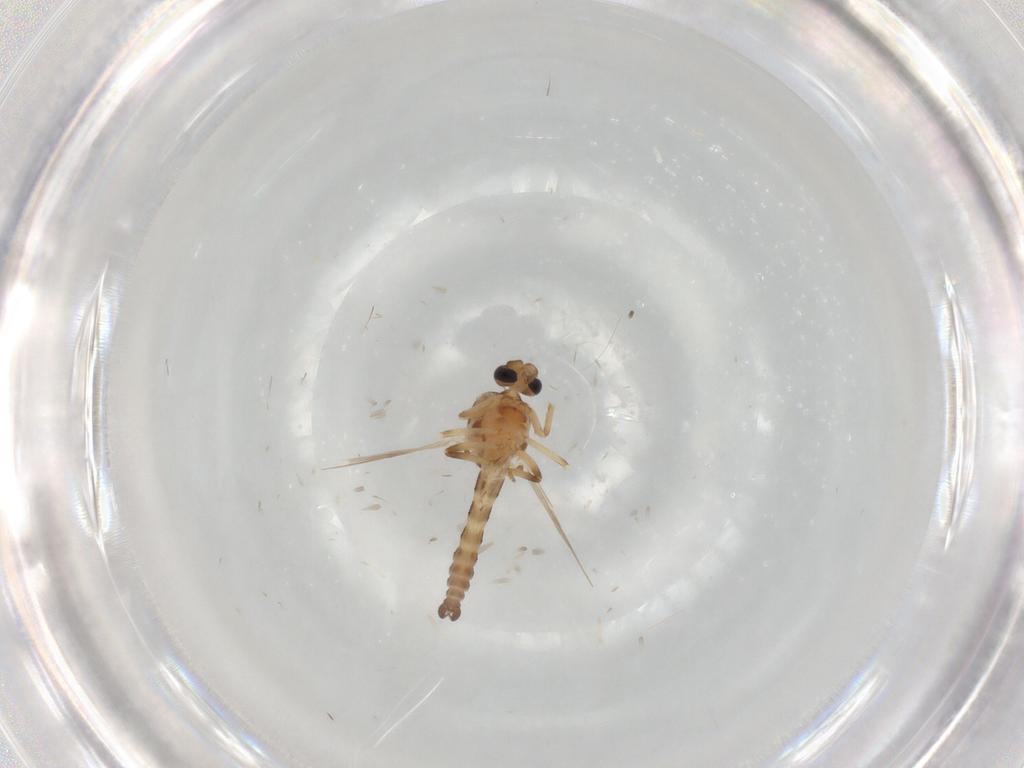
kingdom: Animalia
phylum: Arthropoda
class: Insecta
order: Diptera
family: Ceratopogonidae
